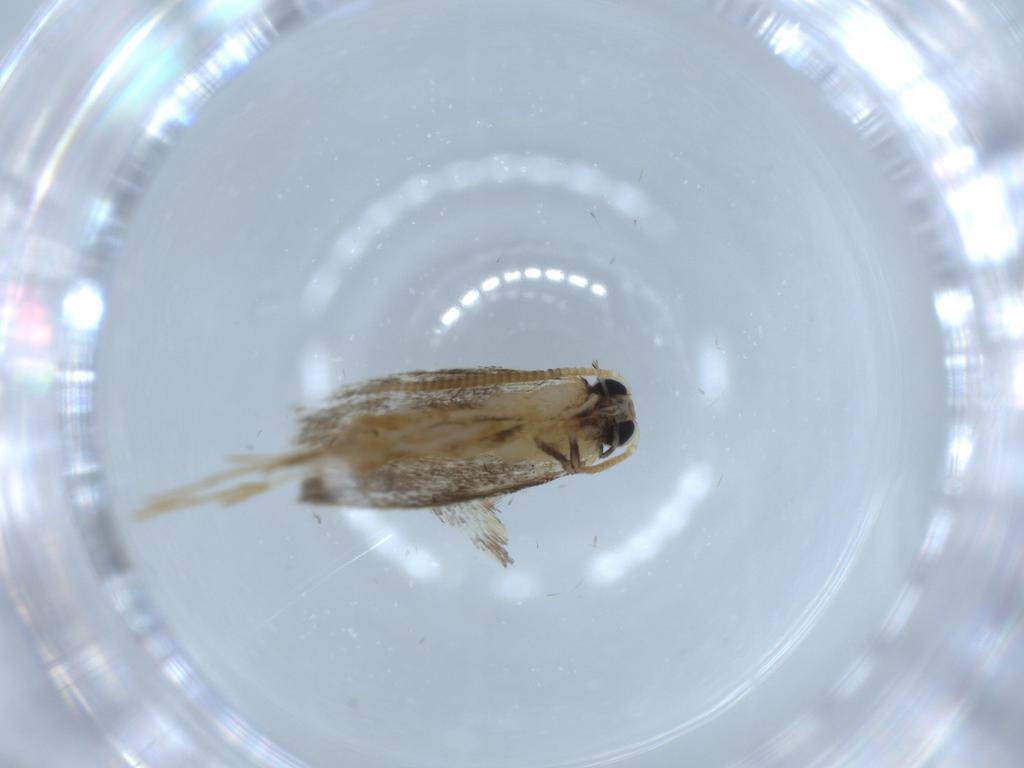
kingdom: Animalia
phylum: Arthropoda
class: Insecta
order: Lepidoptera
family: Tineidae
